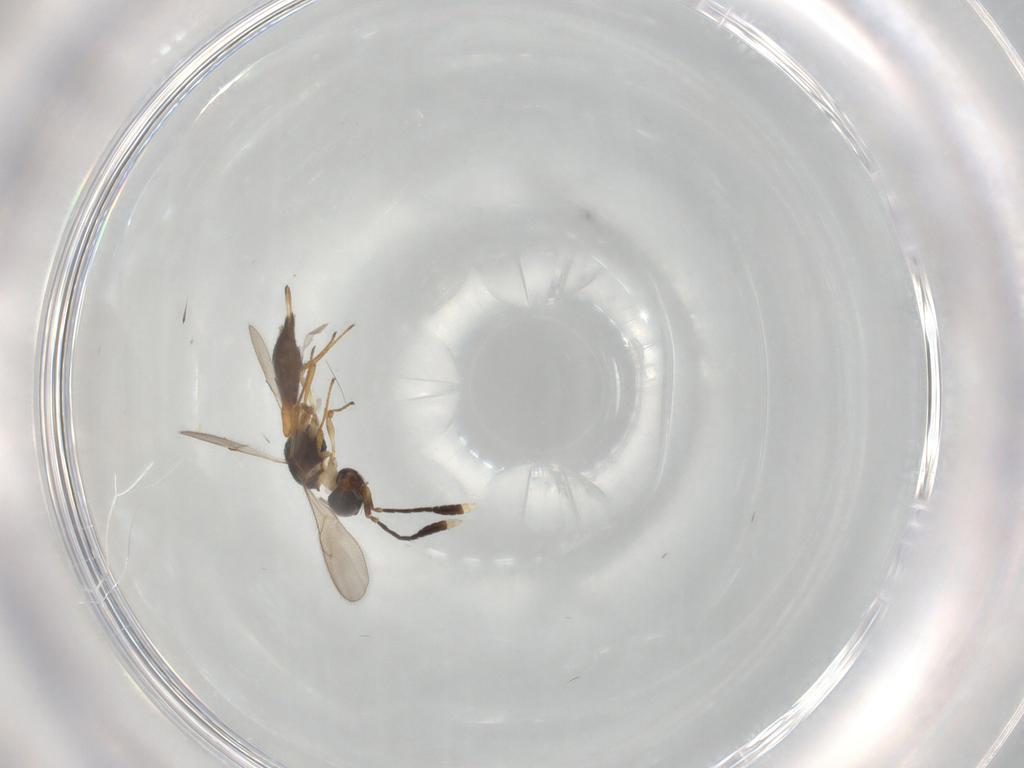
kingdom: Animalia
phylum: Arthropoda
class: Insecta
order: Hymenoptera
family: Scelionidae
